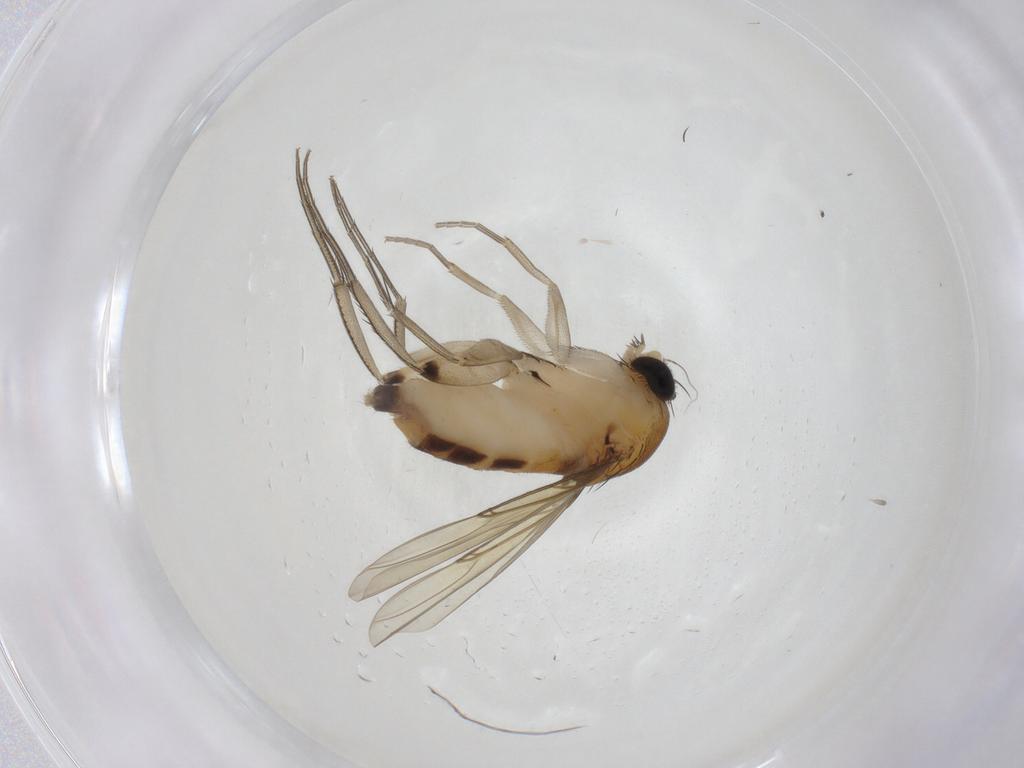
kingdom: Animalia
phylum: Arthropoda
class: Insecta
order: Diptera
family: Phoridae
